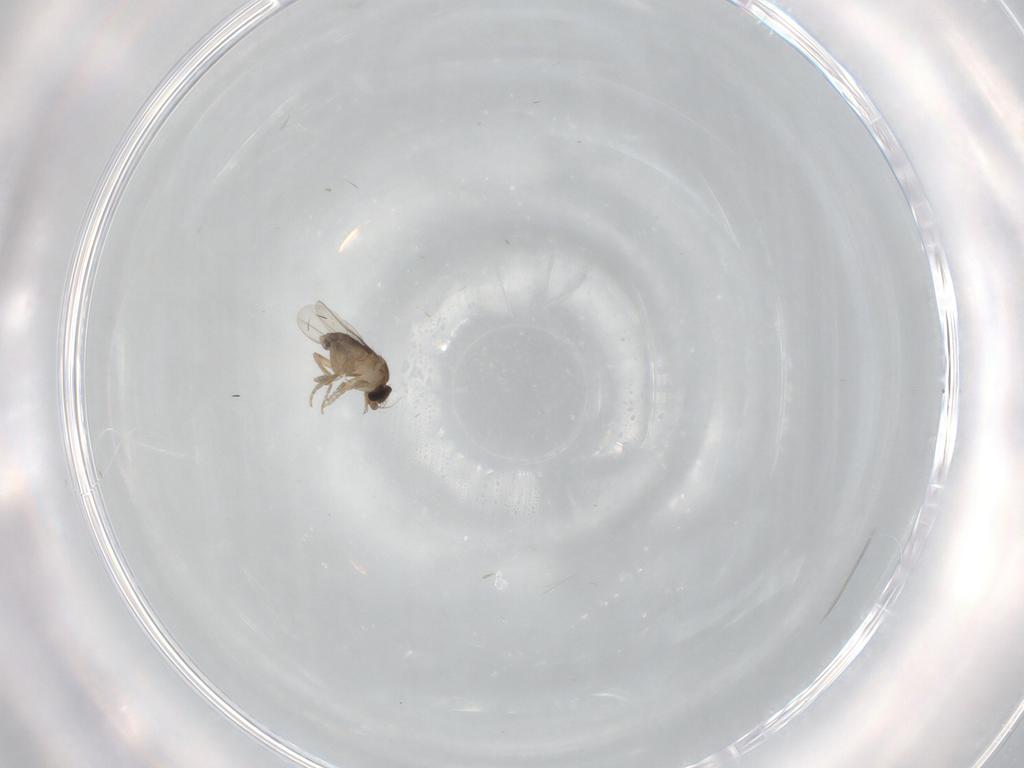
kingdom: Animalia
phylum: Arthropoda
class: Insecta
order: Diptera
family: Phoridae
